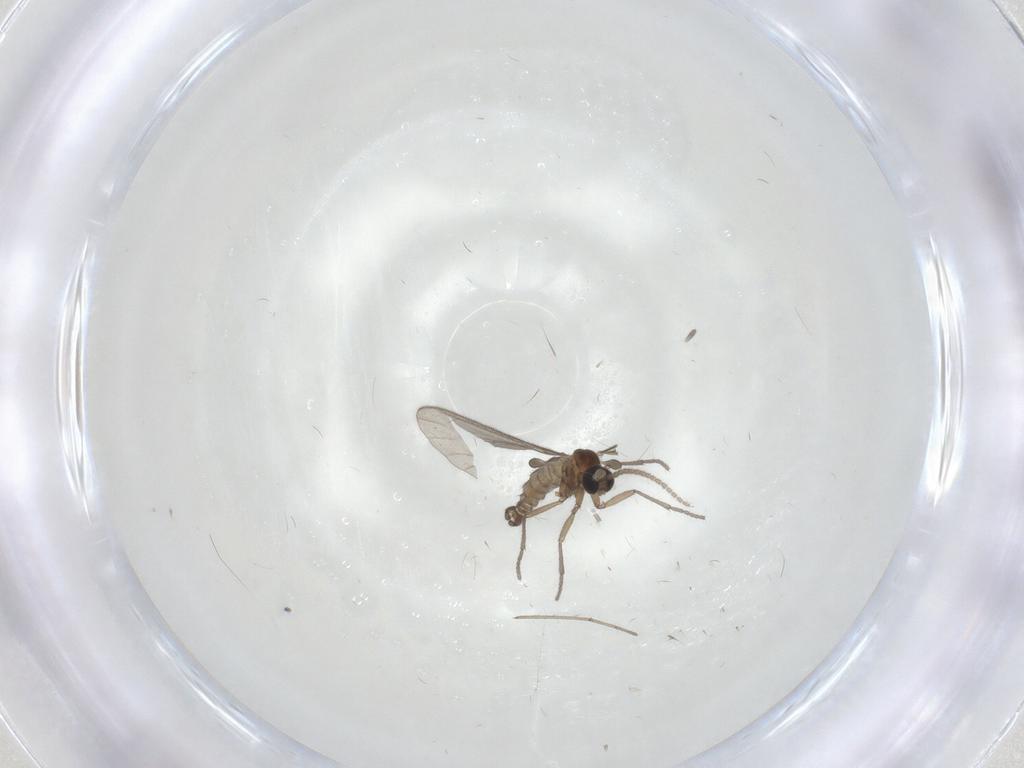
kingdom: Animalia
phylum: Arthropoda
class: Insecta
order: Diptera
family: Sciaridae
